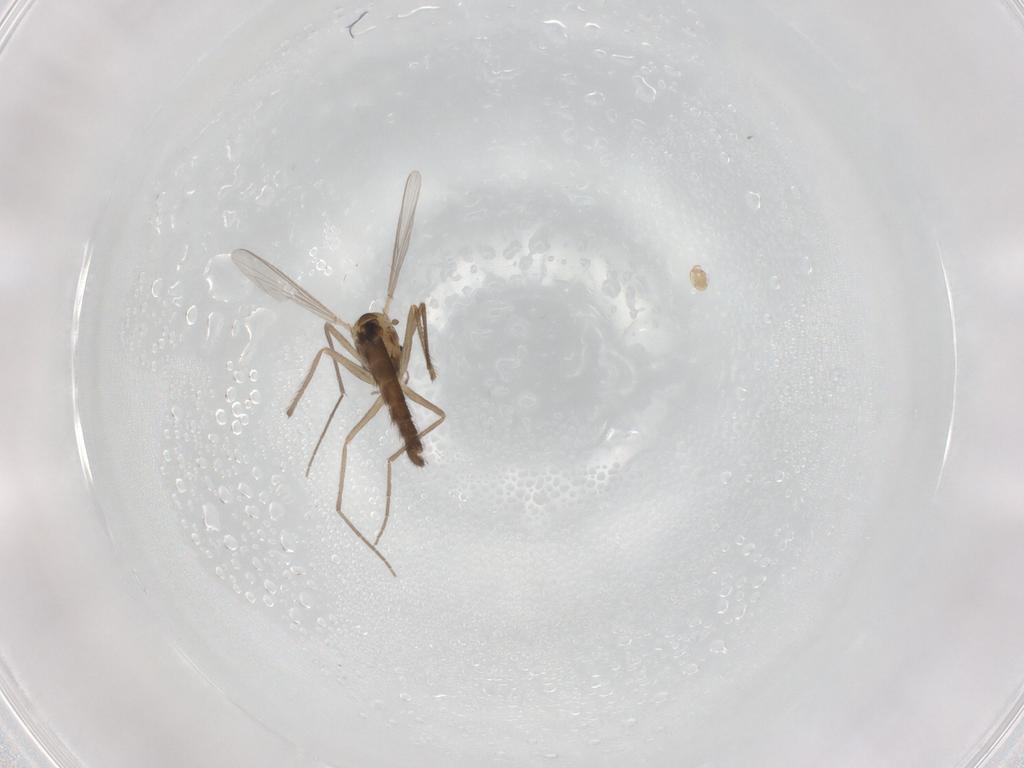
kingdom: Animalia
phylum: Arthropoda
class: Insecta
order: Diptera
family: Chironomidae
